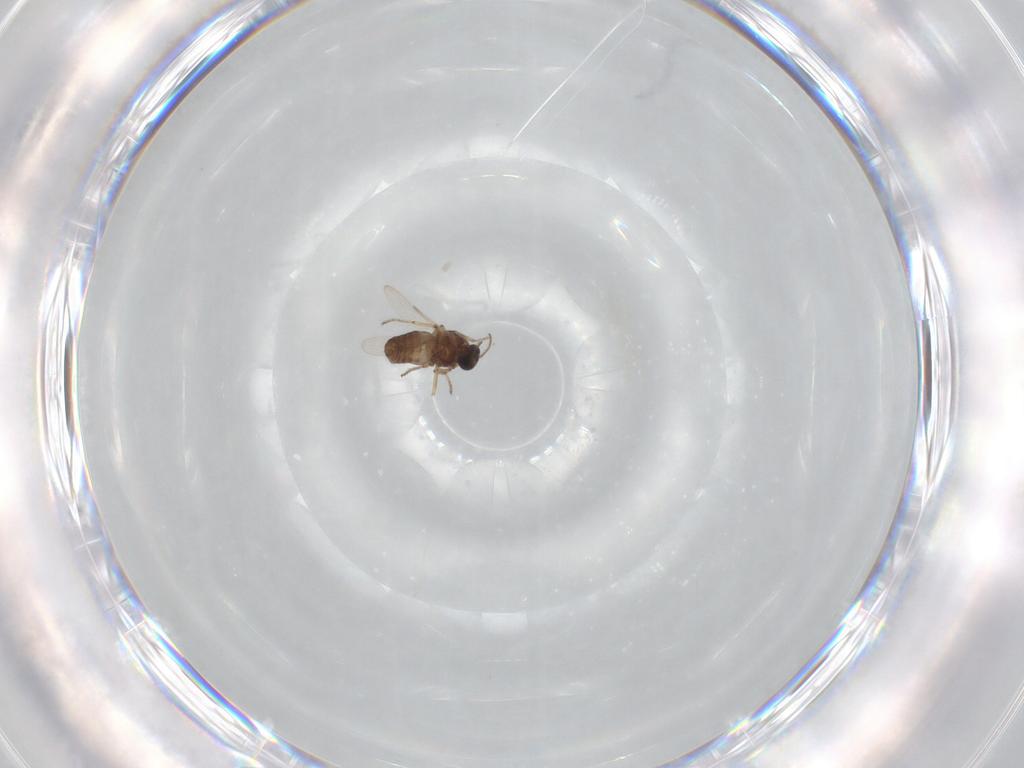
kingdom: Animalia
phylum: Arthropoda
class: Insecta
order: Diptera
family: Ceratopogonidae
